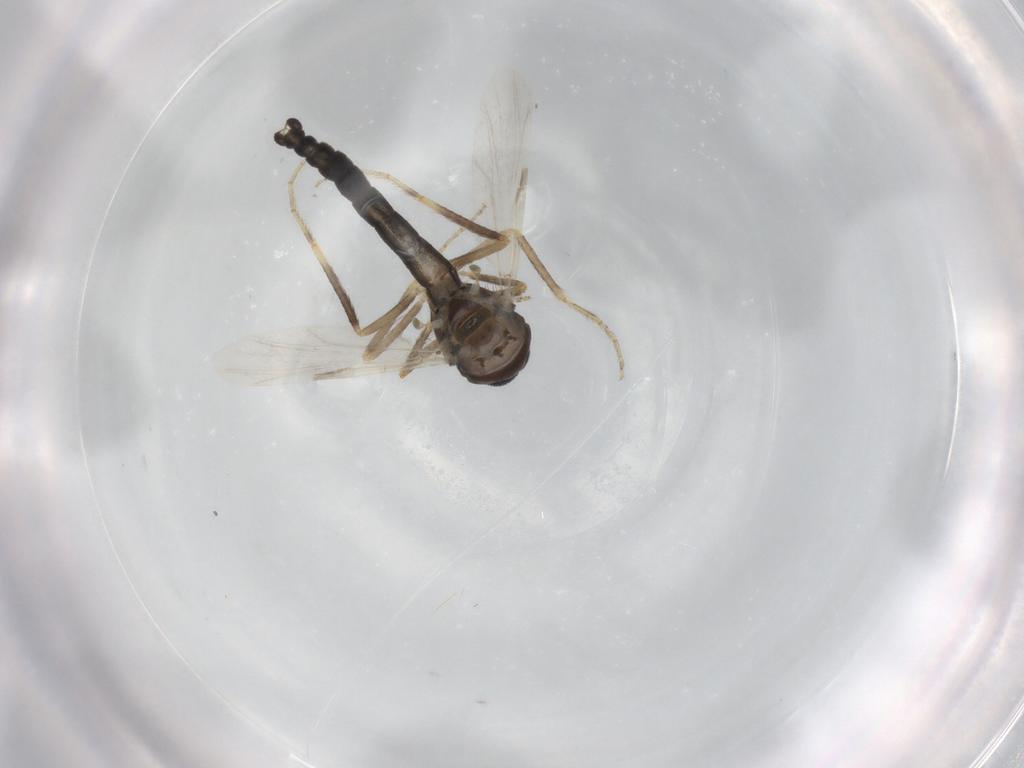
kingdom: Animalia
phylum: Arthropoda
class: Insecta
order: Diptera
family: Ceratopogonidae
